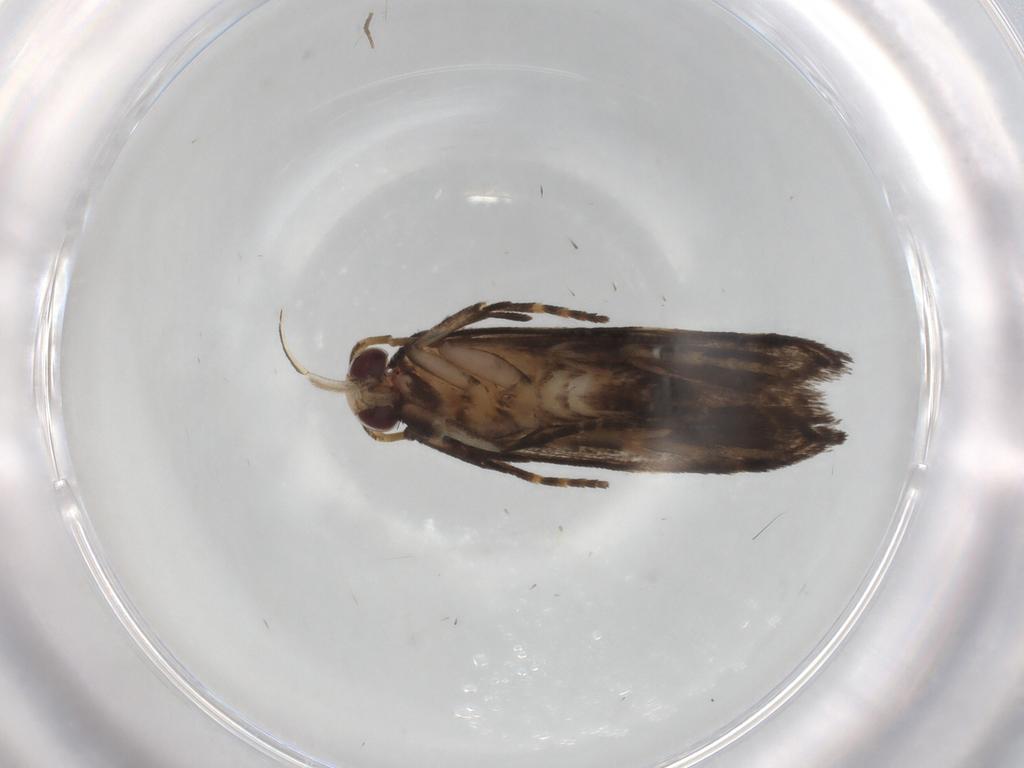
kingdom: Animalia
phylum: Arthropoda
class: Insecta
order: Lepidoptera
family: Gelechiidae
